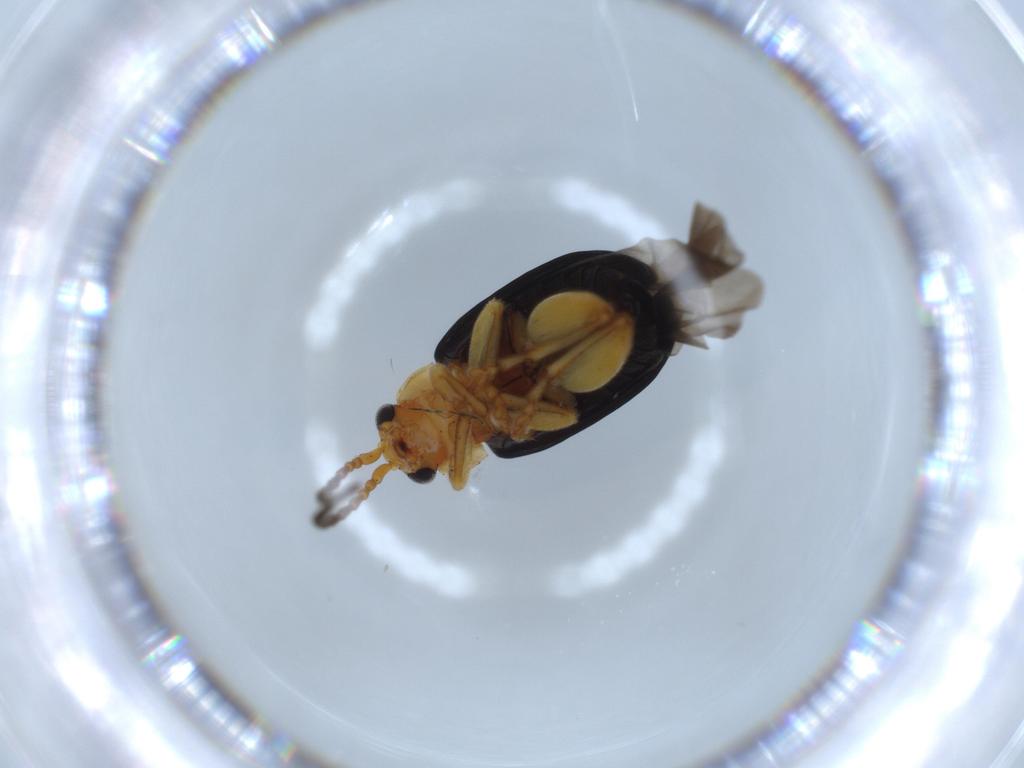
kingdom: Animalia
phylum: Arthropoda
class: Insecta
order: Coleoptera
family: Chrysomelidae
